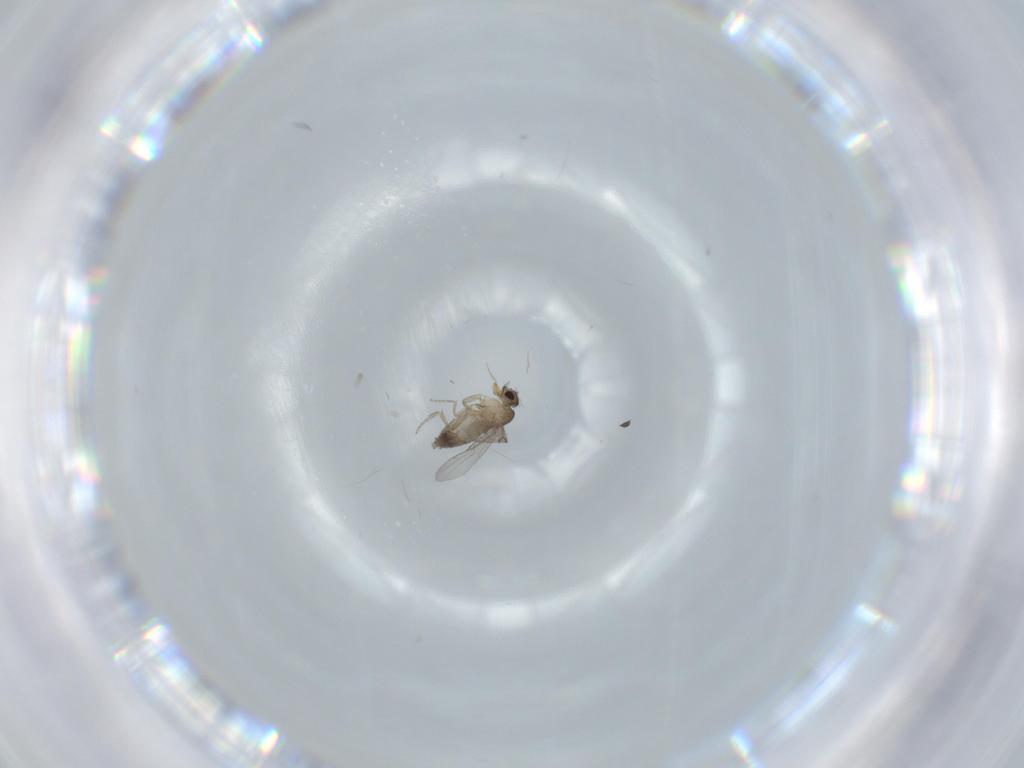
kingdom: Animalia
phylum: Arthropoda
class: Insecta
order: Diptera
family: Phoridae
